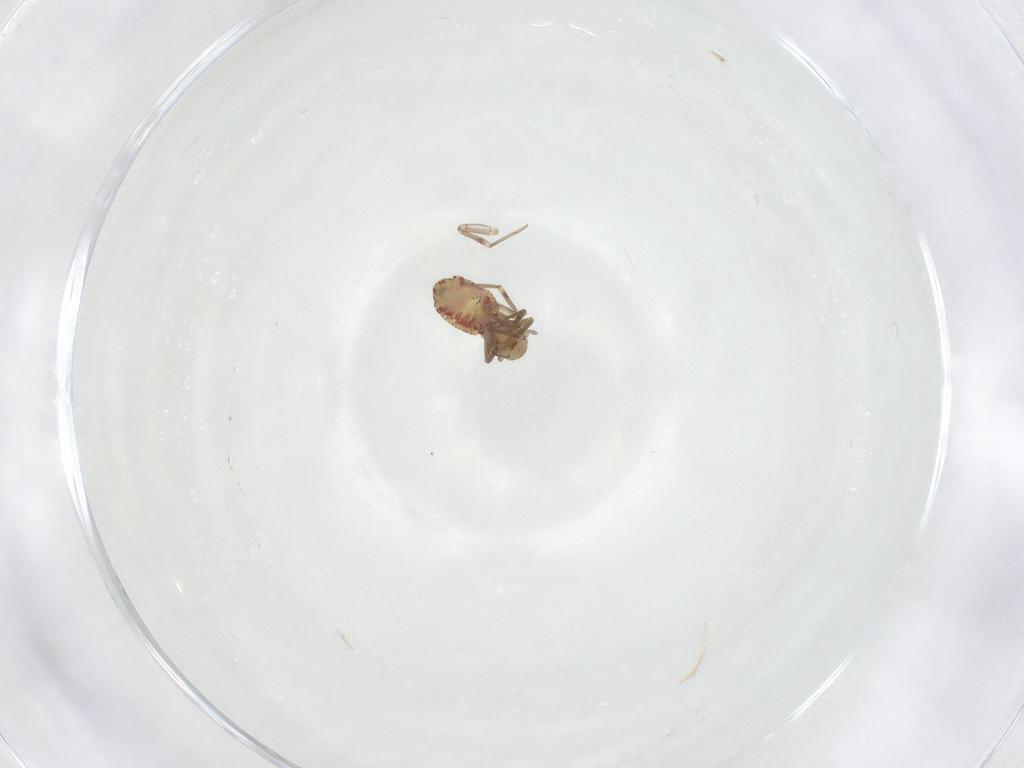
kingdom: Animalia
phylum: Arthropoda
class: Insecta
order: Psocodea
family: Philotarsidae
